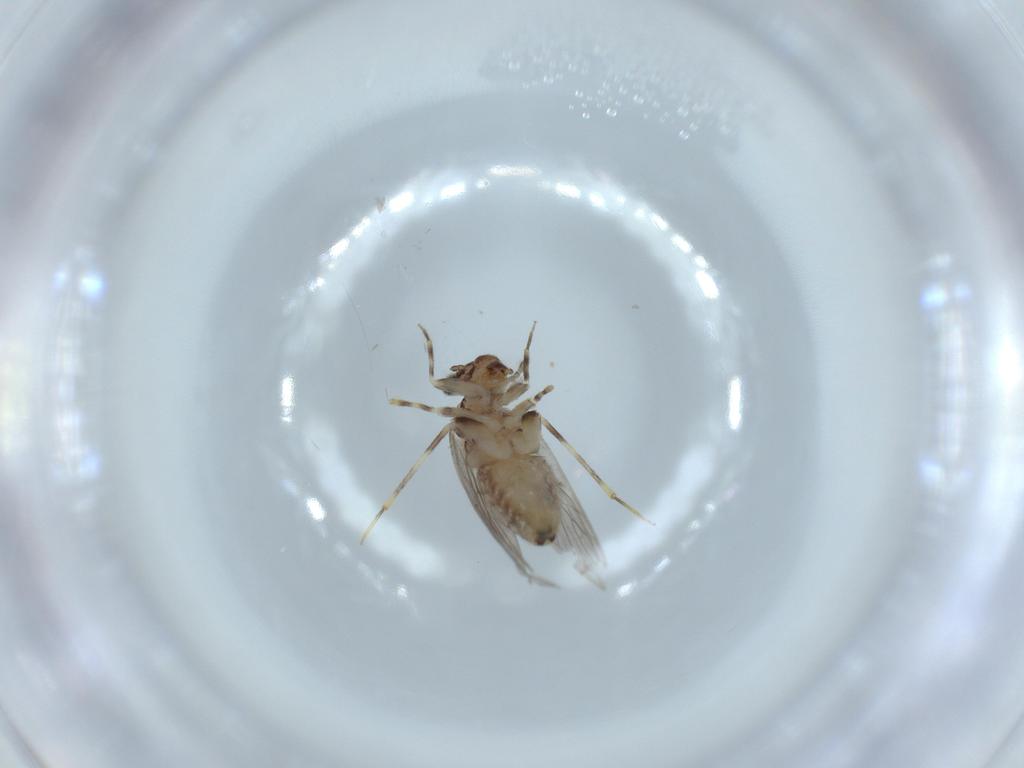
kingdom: Animalia
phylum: Arthropoda
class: Insecta
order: Psocodea
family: Lepidopsocidae
